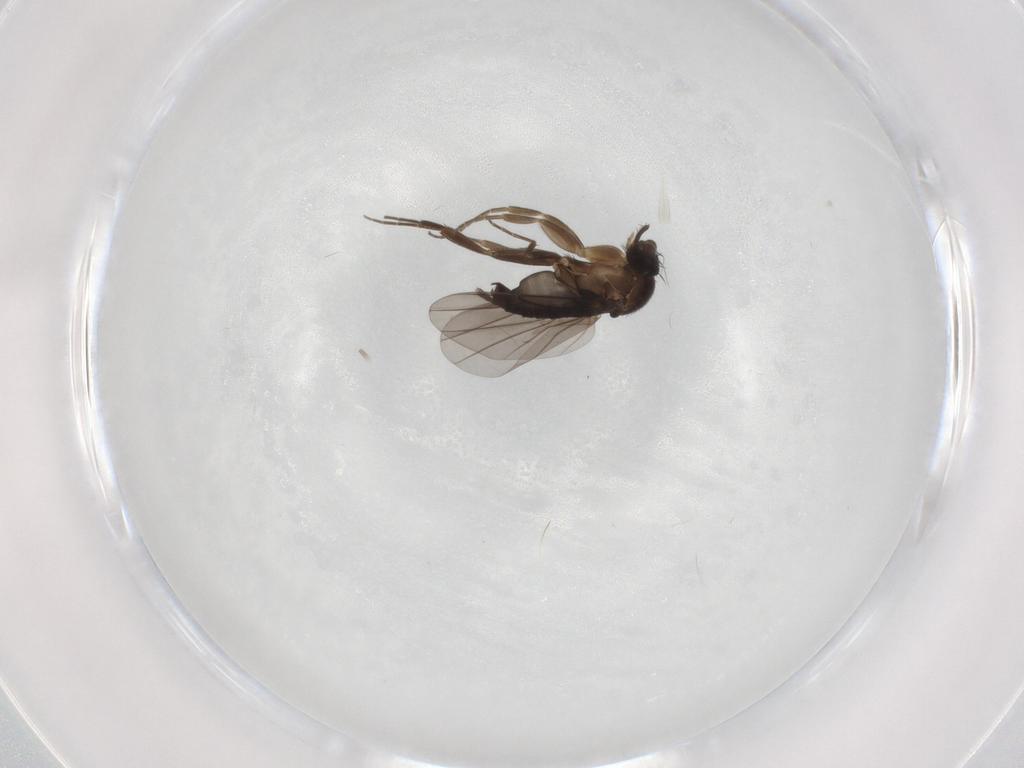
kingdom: Animalia
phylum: Arthropoda
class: Insecta
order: Diptera
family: Phoridae
